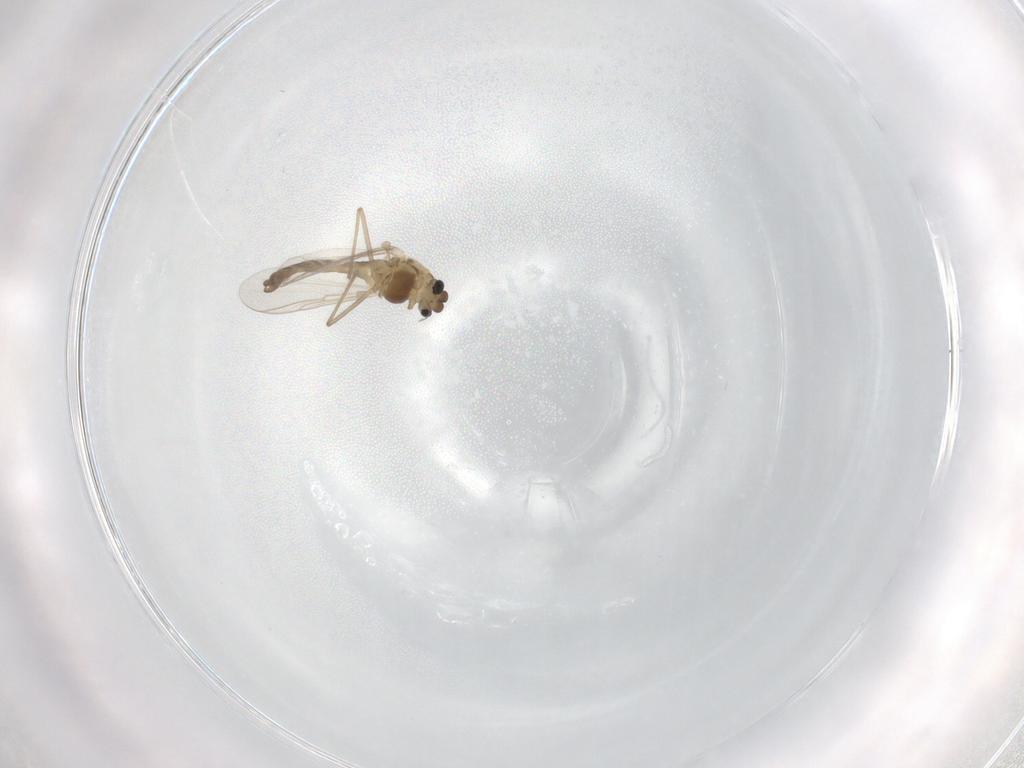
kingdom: Animalia
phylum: Arthropoda
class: Insecta
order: Diptera
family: Chironomidae
